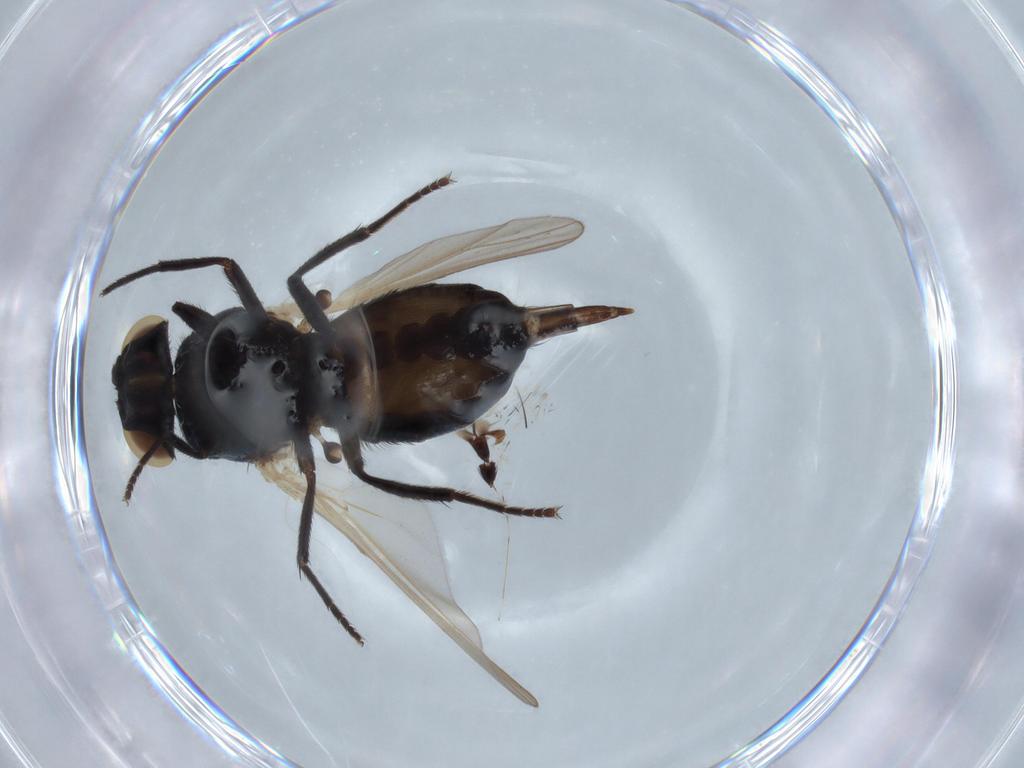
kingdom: Animalia
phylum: Arthropoda
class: Insecta
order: Diptera
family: Lonchaeidae
